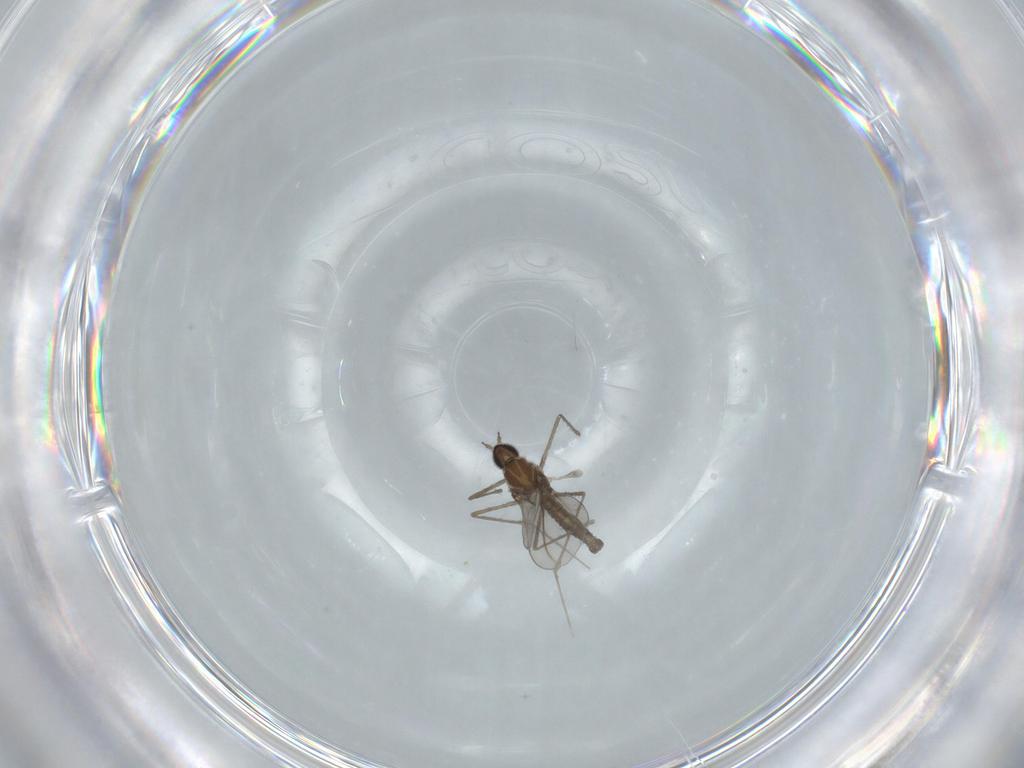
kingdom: Animalia
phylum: Arthropoda
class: Insecta
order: Diptera
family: Cecidomyiidae
